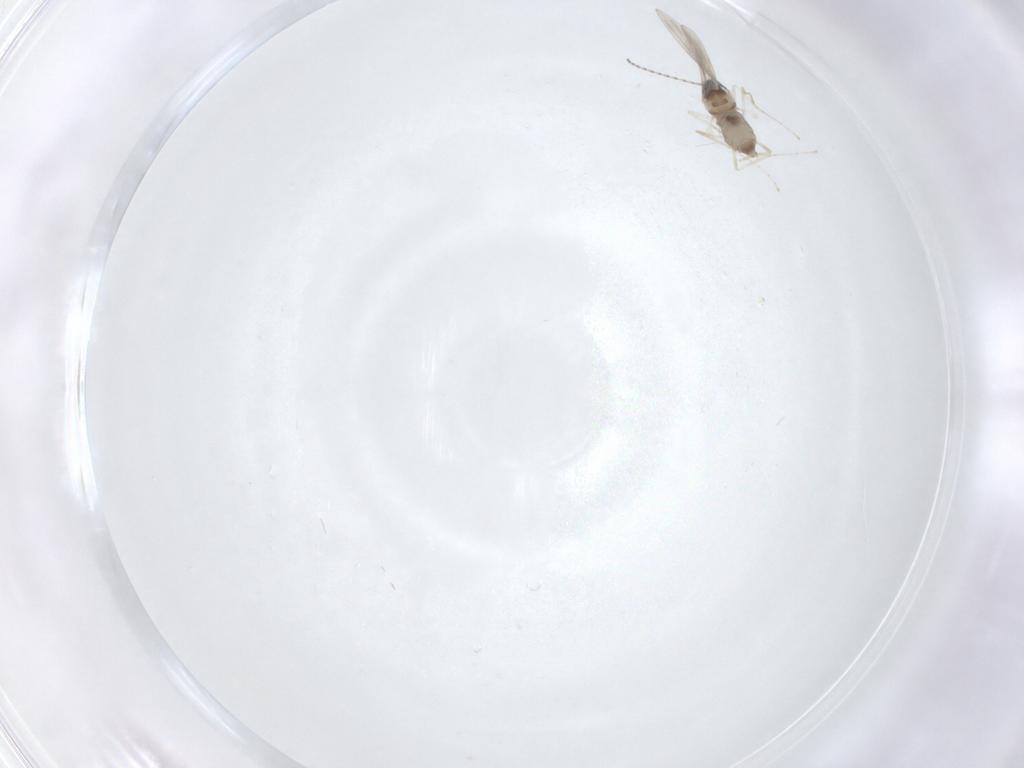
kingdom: Animalia
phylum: Arthropoda
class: Insecta
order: Diptera
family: Cecidomyiidae
